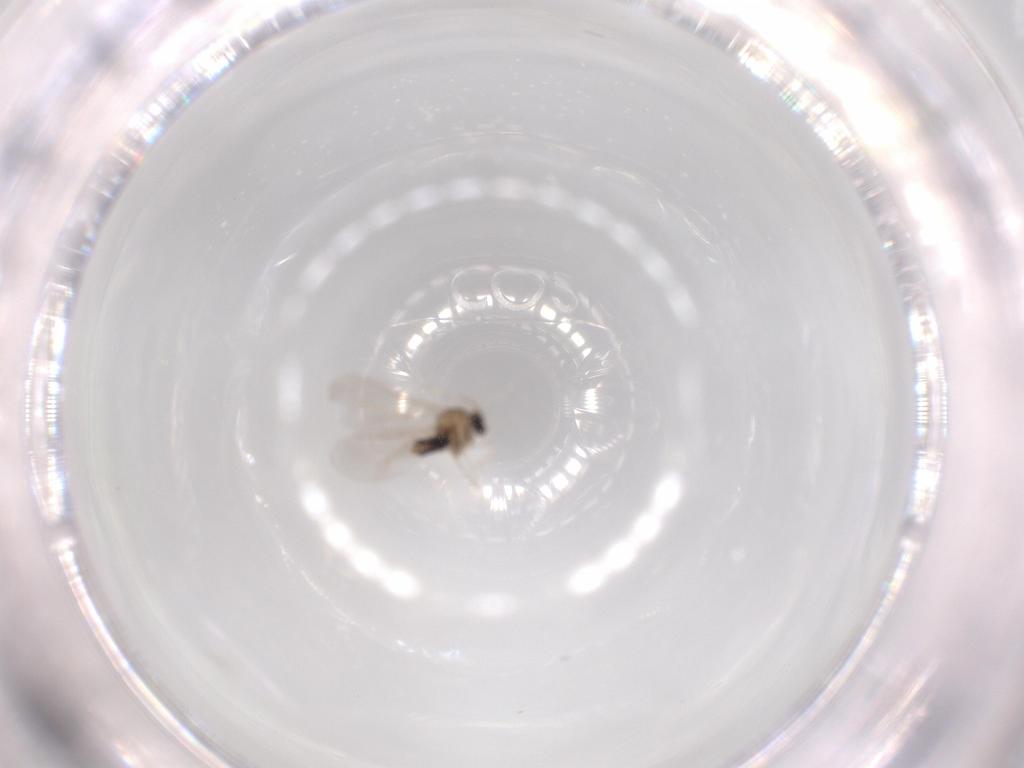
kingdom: Animalia
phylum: Arthropoda
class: Insecta
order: Diptera
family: Cecidomyiidae
